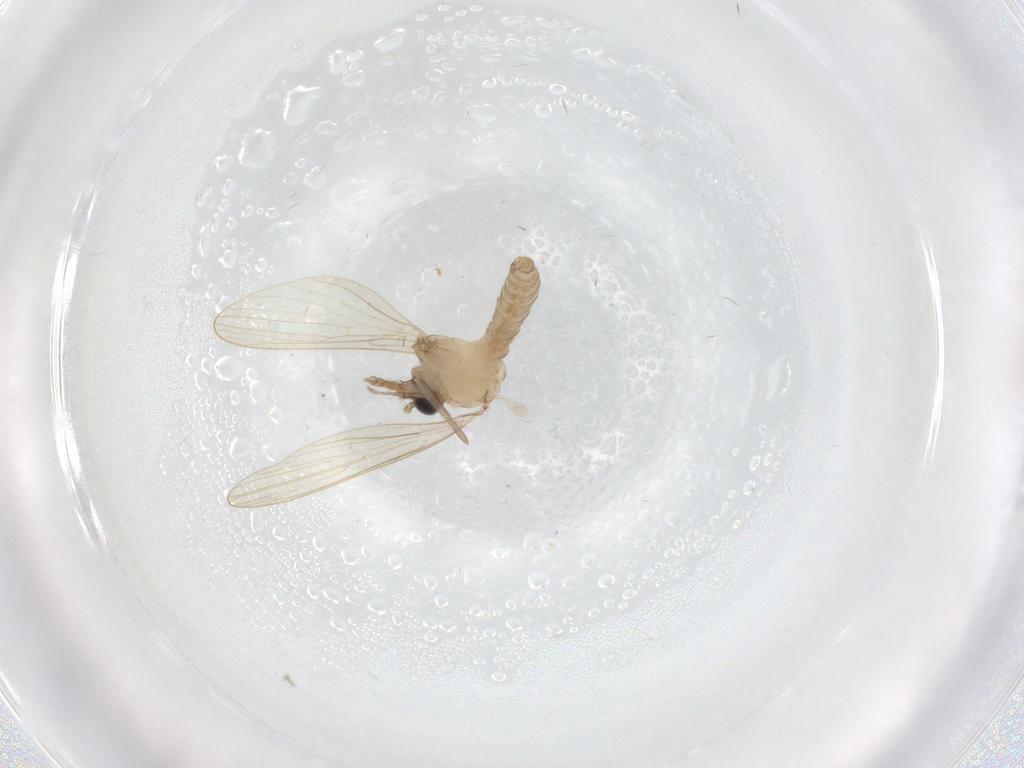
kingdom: Animalia
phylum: Arthropoda
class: Insecta
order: Diptera
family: Psychodidae
